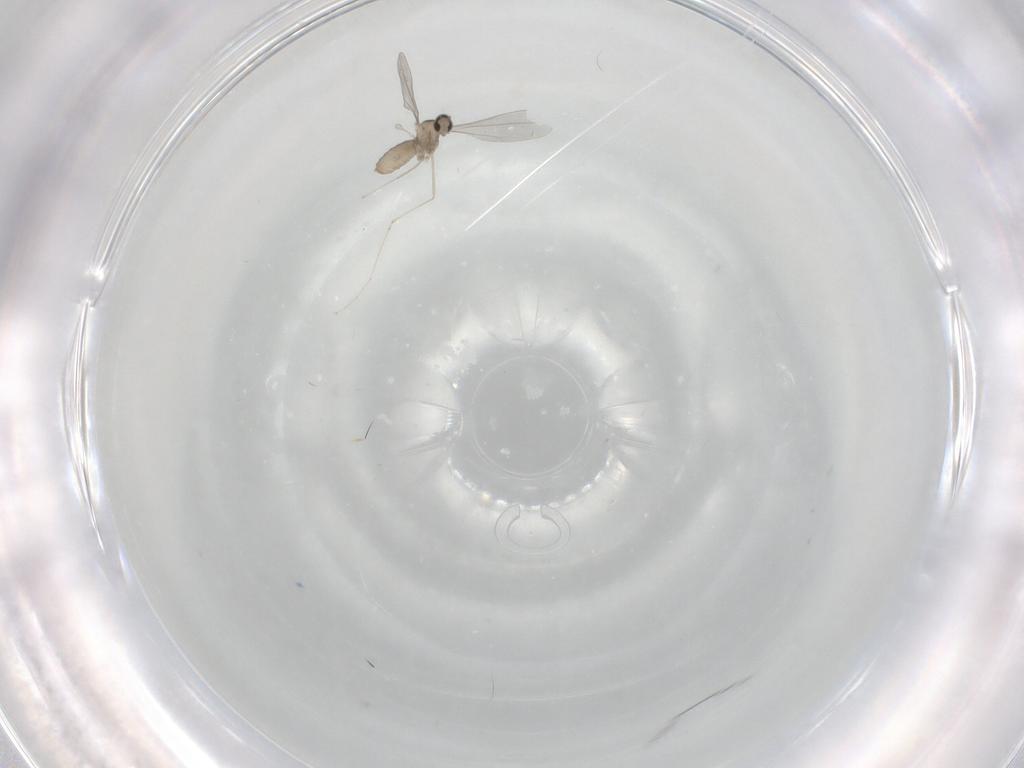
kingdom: Animalia
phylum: Arthropoda
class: Insecta
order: Diptera
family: Cecidomyiidae
